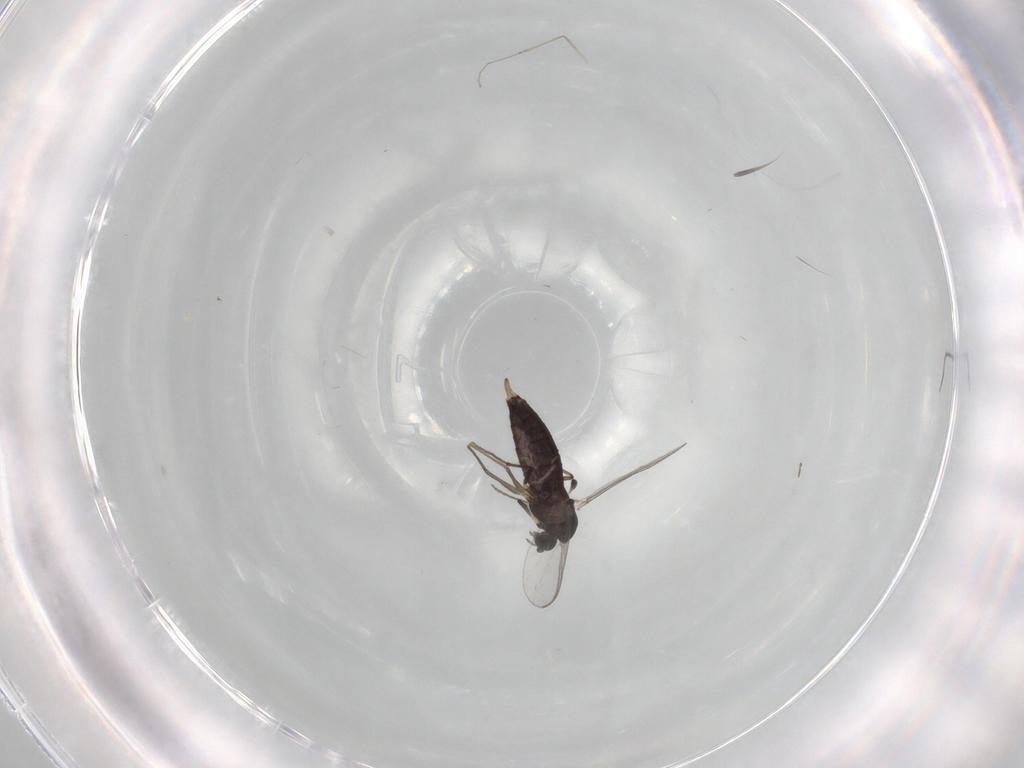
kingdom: Animalia
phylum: Arthropoda
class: Insecta
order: Diptera
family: Chironomidae
